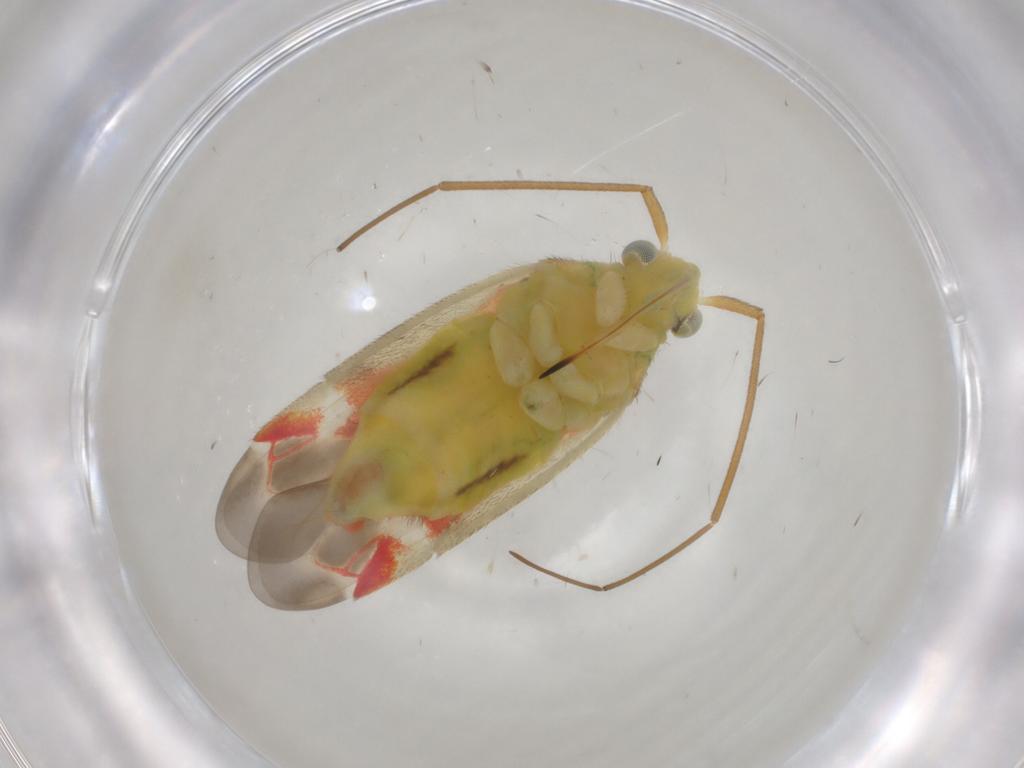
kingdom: Animalia
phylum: Arthropoda
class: Insecta
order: Hemiptera
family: Miridae
